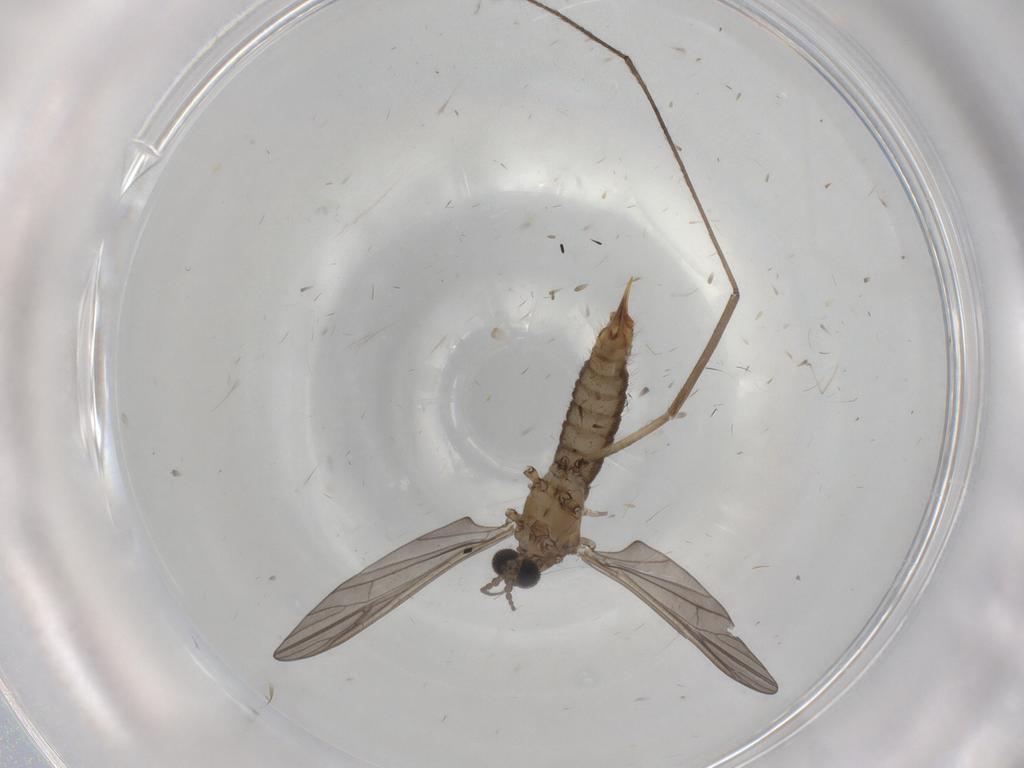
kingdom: Animalia
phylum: Arthropoda
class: Insecta
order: Diptera
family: Limoniidae
